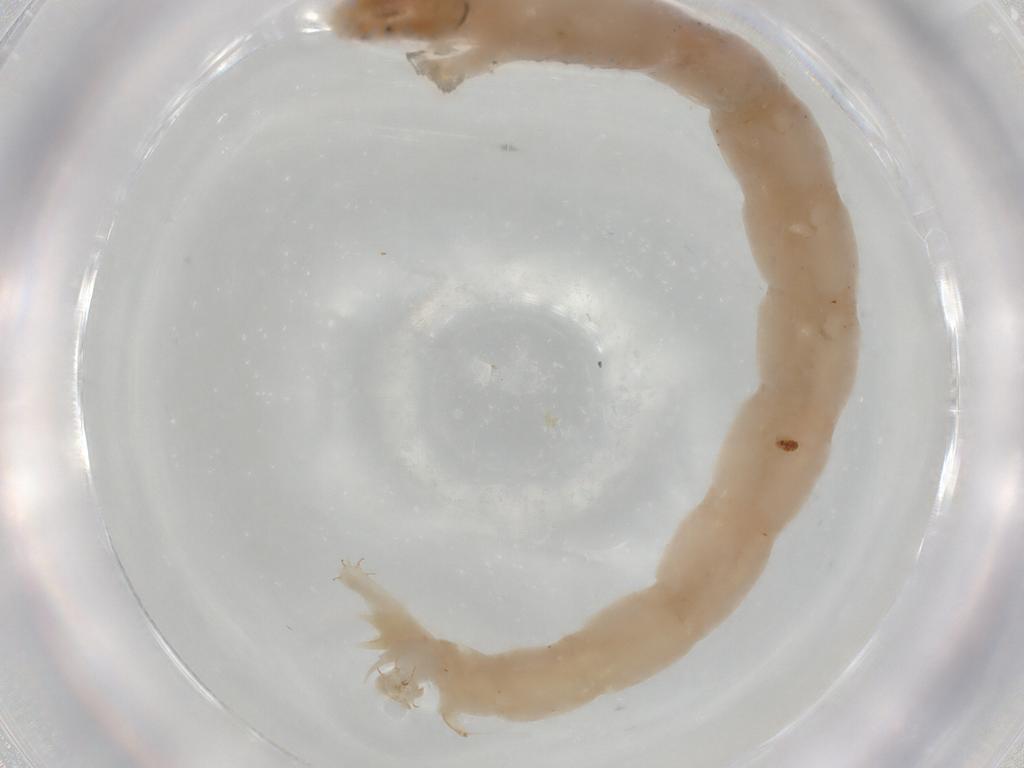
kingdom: Animalia
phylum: Arthropoda
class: Insecta
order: Diptera
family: Chironomidae
